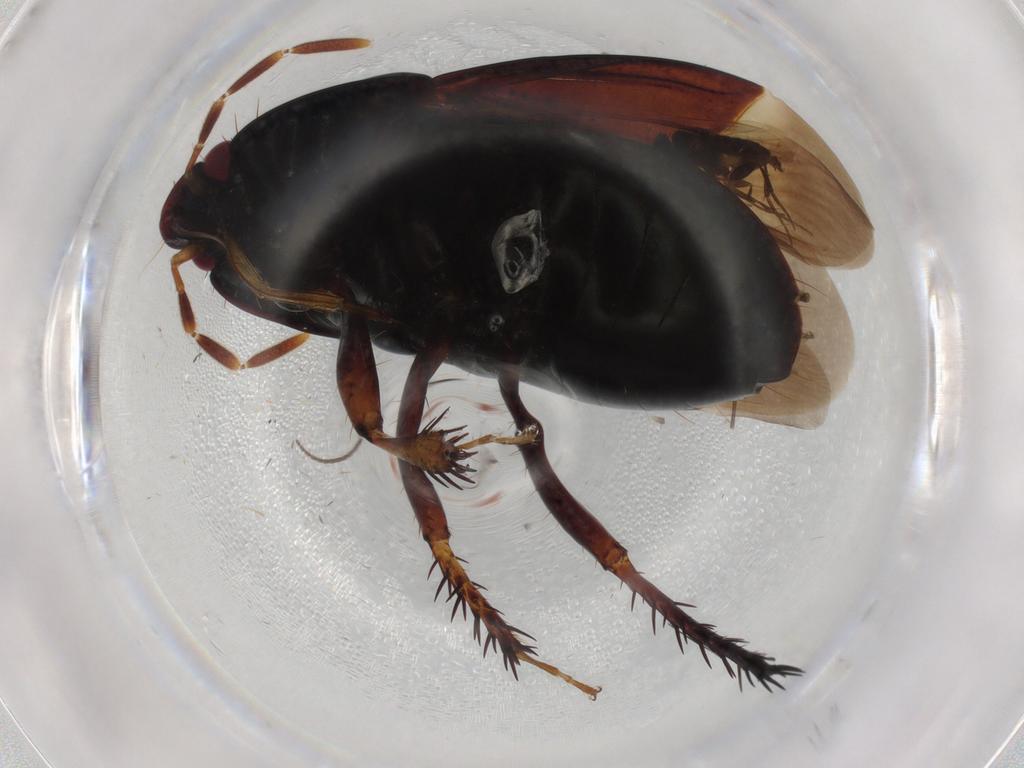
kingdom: Animalia
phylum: Arthropoda
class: Insecta
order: Hemiptera
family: Cydnidae
